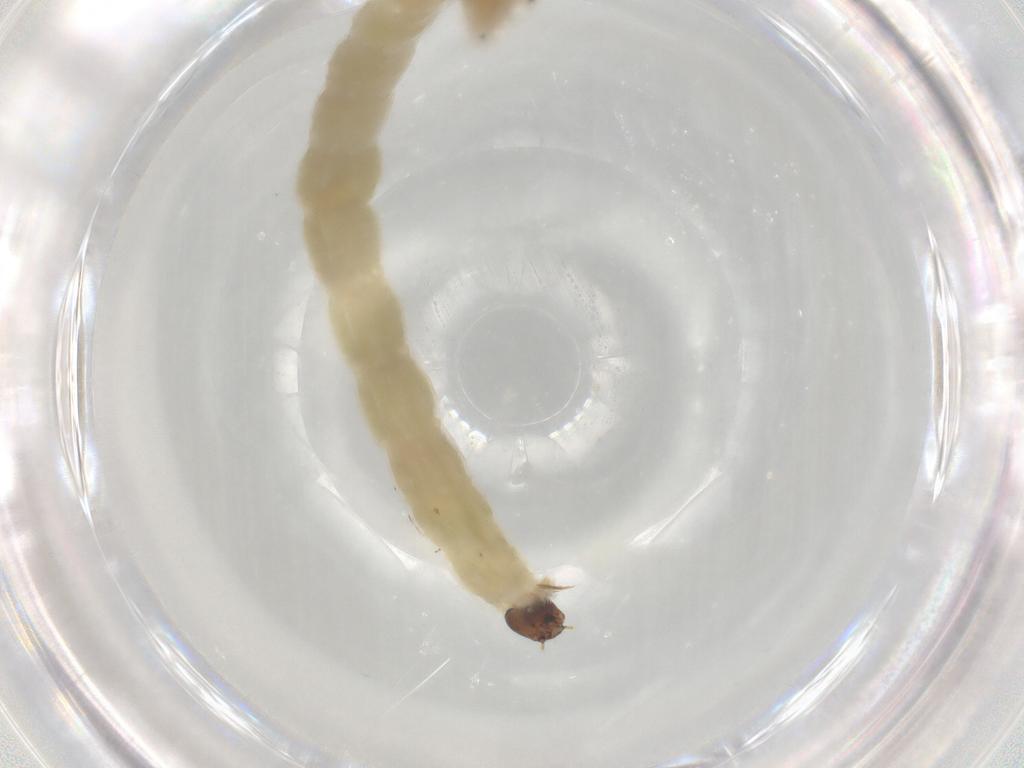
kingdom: Animalia
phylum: Arthropoda
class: Insecta
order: Diptera
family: Chironomidae
